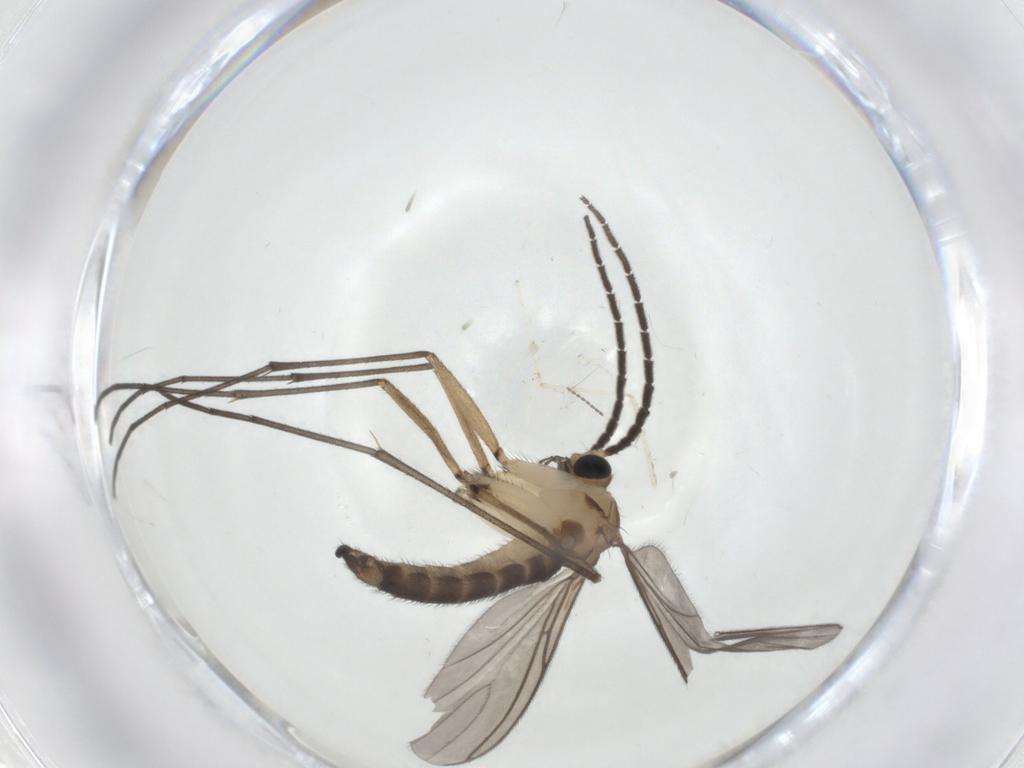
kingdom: Animalia
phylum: Arthropoda
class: Insecta
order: Diptera
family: Sciaridae
